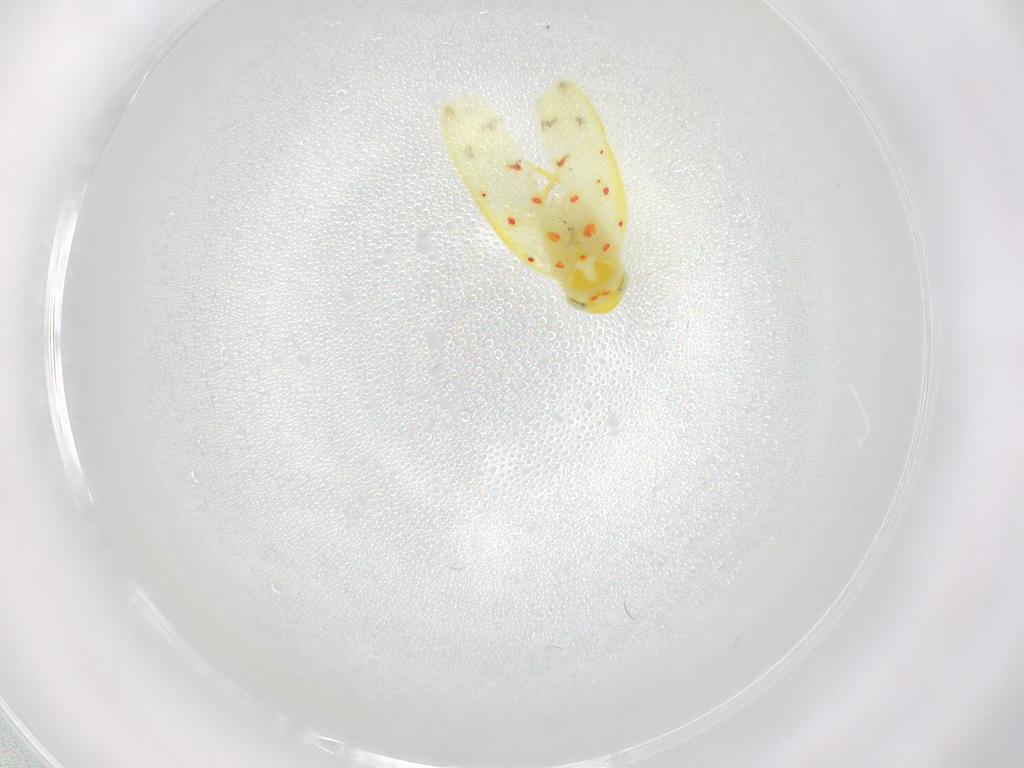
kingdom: Animalia
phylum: Arthropoda
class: Insecta
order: Hemiptera
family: Cicadellidae
